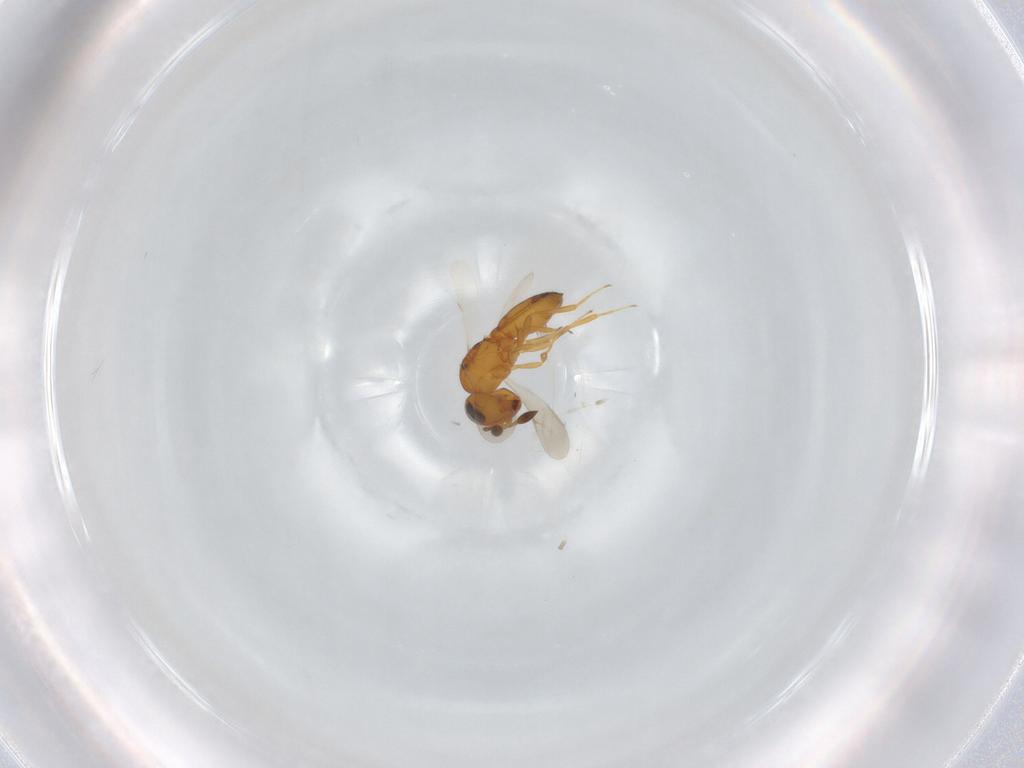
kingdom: Animalia
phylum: Arthropoda
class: Insecta
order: Hymenoptera
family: Scelionidae
